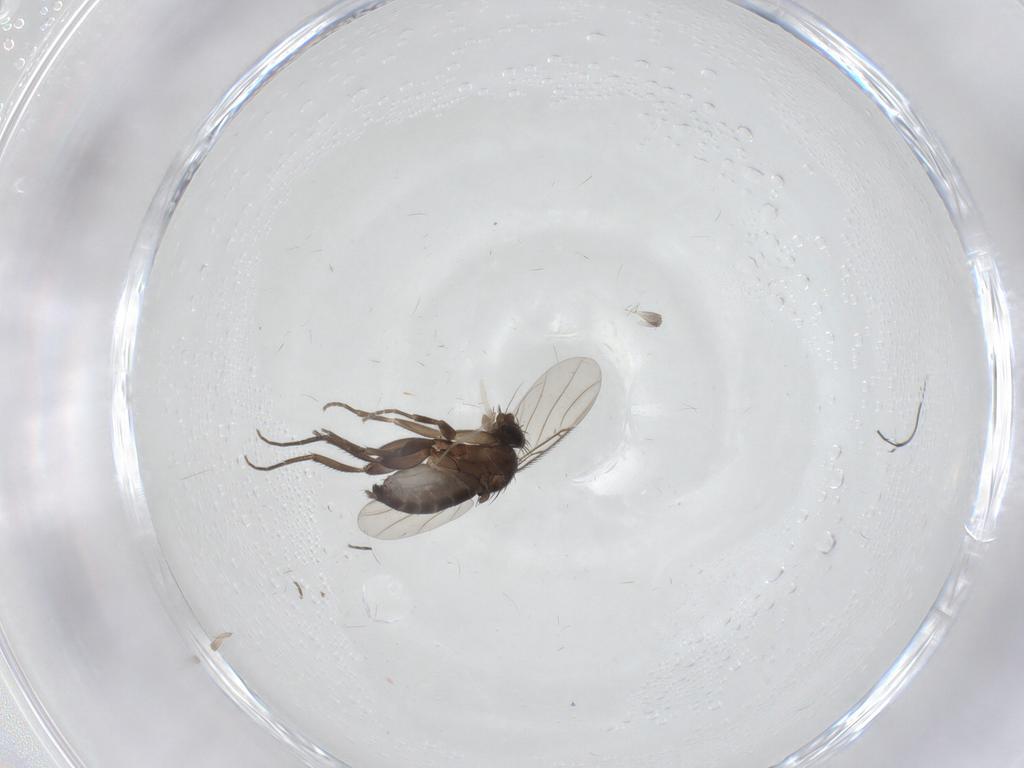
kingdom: Animalia
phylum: Arthropoda
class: Insecta
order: Diptera
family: Phoridae
